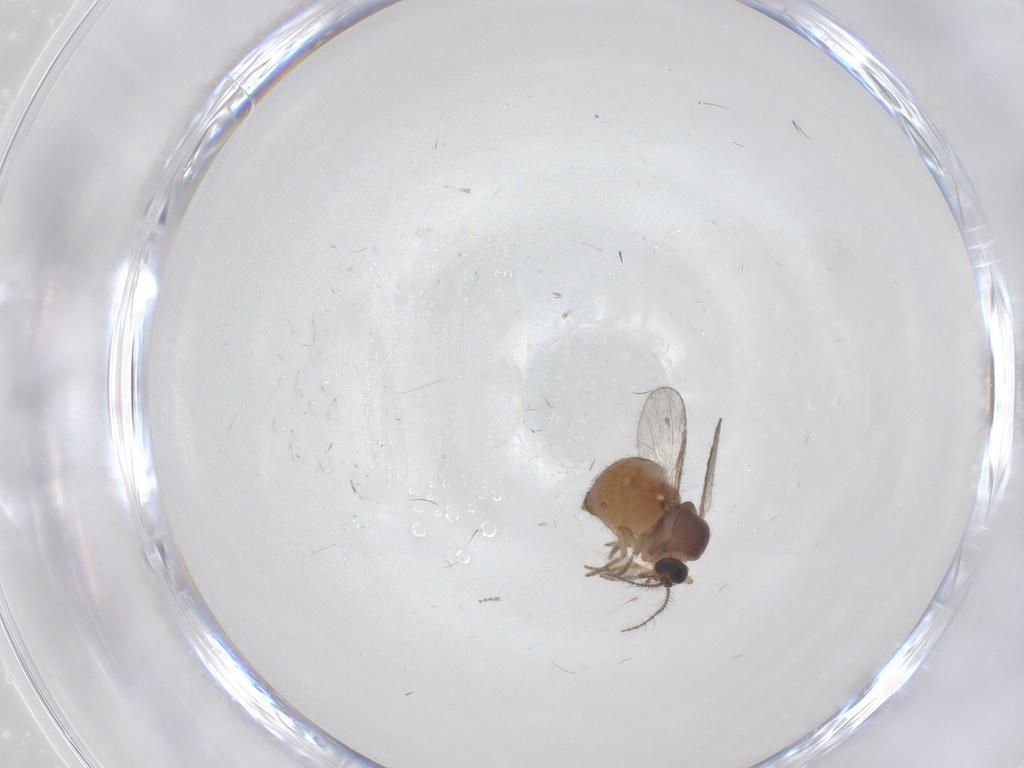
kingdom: Animalia
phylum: Arthropoda
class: Insecta
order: Diptera
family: Ceratopogonidae
